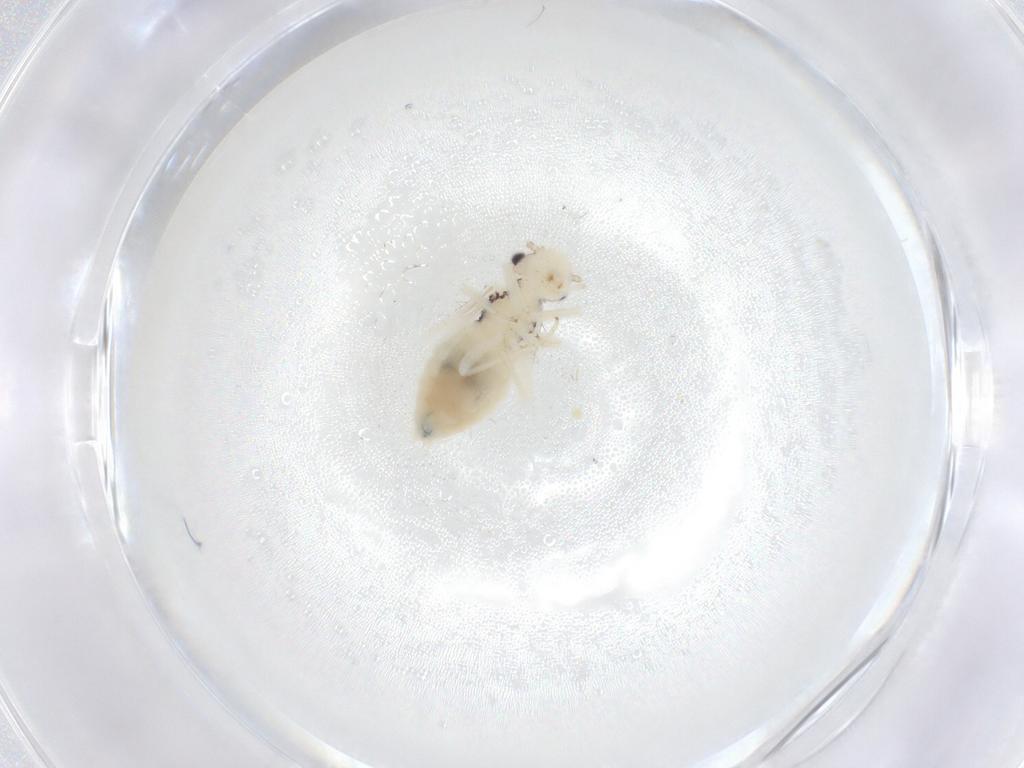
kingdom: Animalia
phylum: Arthropoda
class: Insecta
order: Psocodea
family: Caeciliusidae
